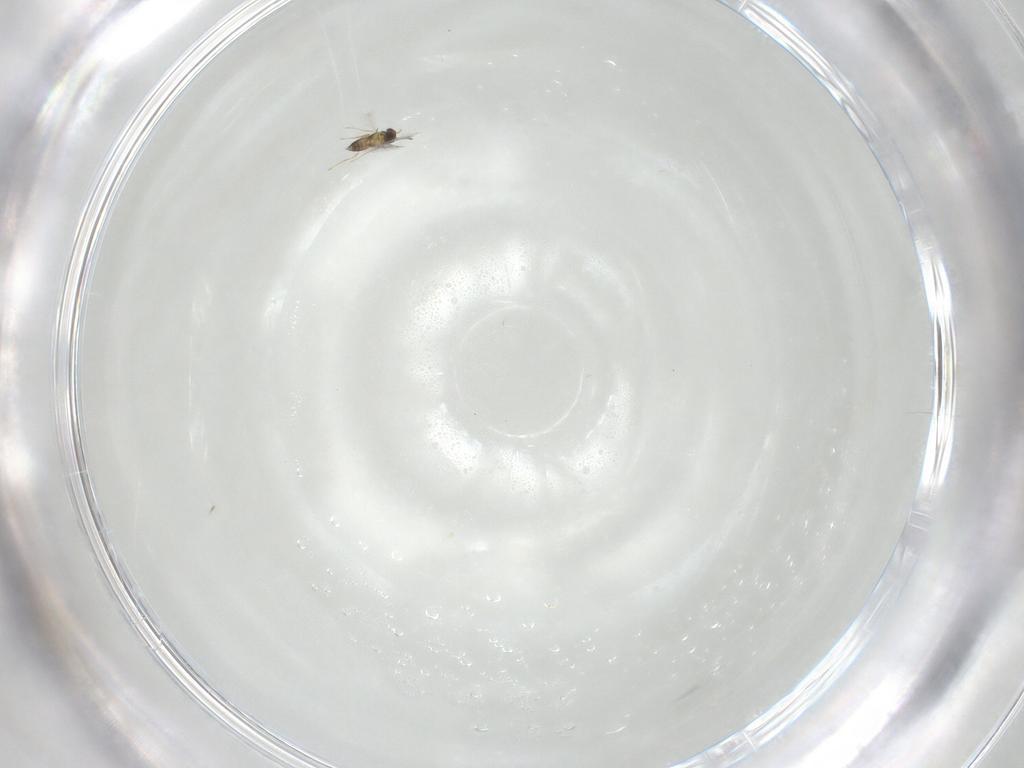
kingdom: Animalia
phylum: Arthropoda
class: Insecta
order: Hymenoptera
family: Mymaridae
